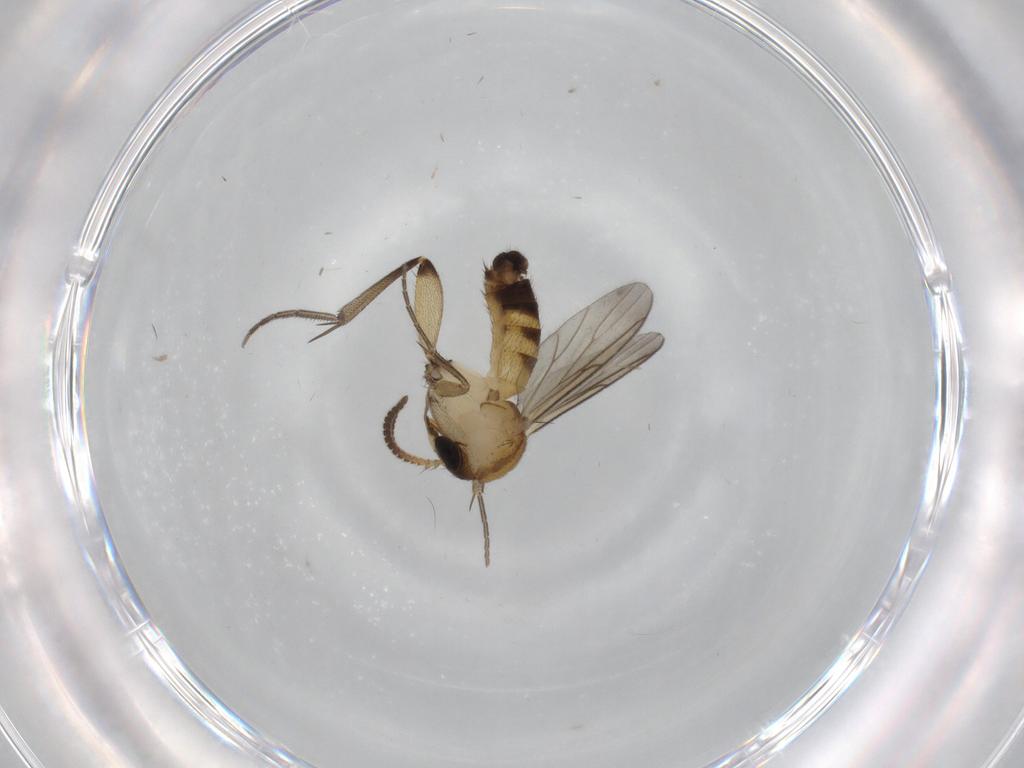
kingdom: Animalia
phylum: Arthropoda
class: Insecta
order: Diptera
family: Mycetophilidae
